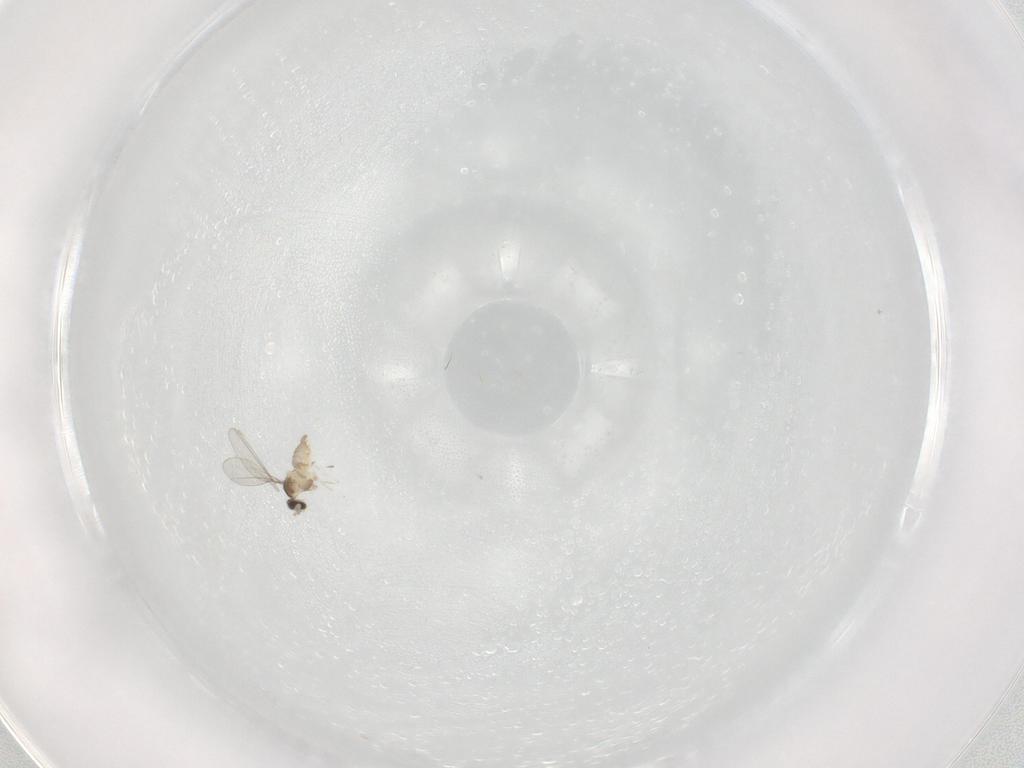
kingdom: Animalia
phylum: Arthropoda
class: Insecta
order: Diptera
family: Cecidomyiidae
